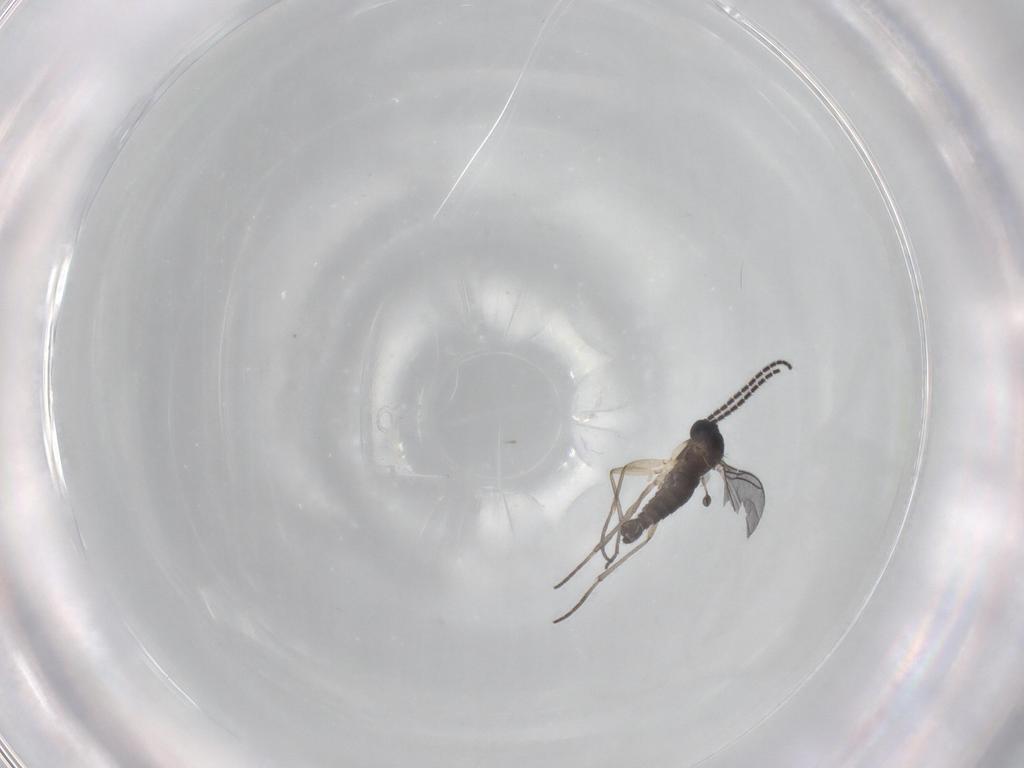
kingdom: Animalia
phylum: Arthropoda
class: Insecta
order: Diptera
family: Sciaridae
